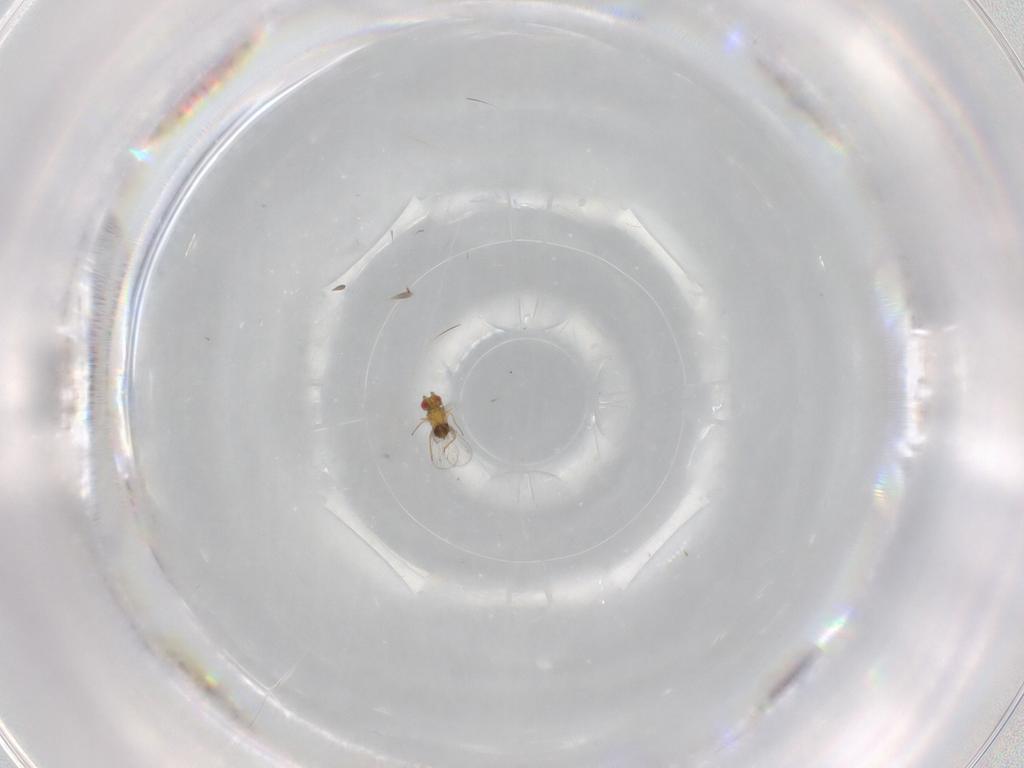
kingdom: Animalia
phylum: Arthropoda
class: Insecta
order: Hymenoptera
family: Trichogrammatidae
